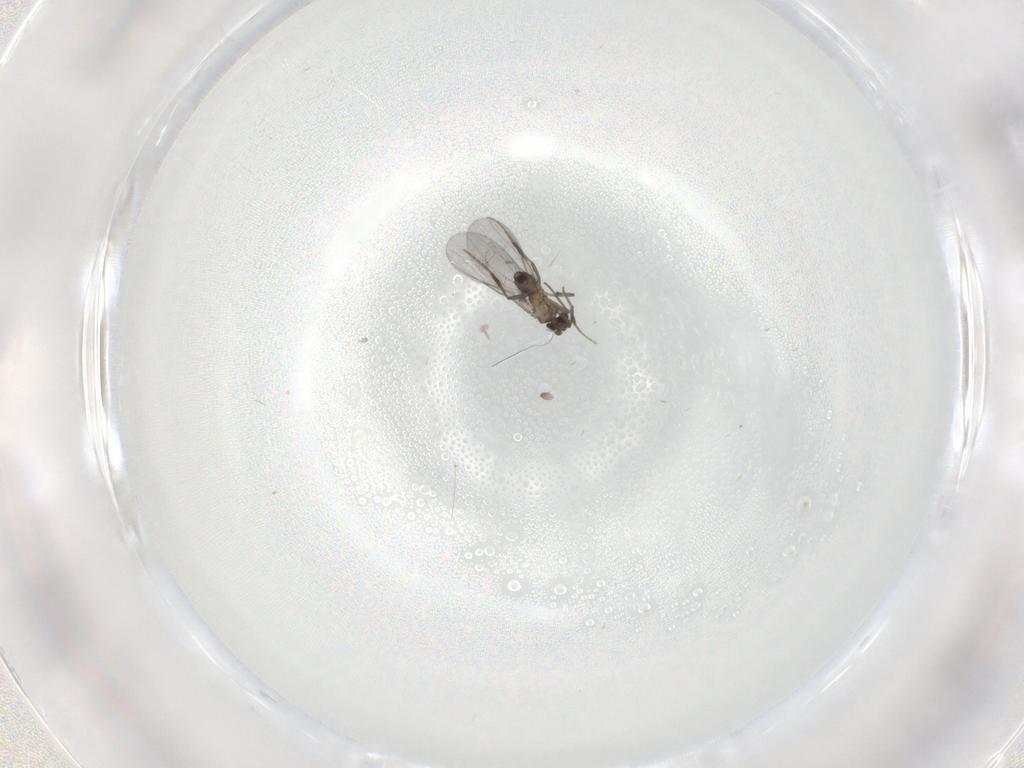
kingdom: Animalia
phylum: Arthropoda
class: Insecta
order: Diptera
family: Phoridae
